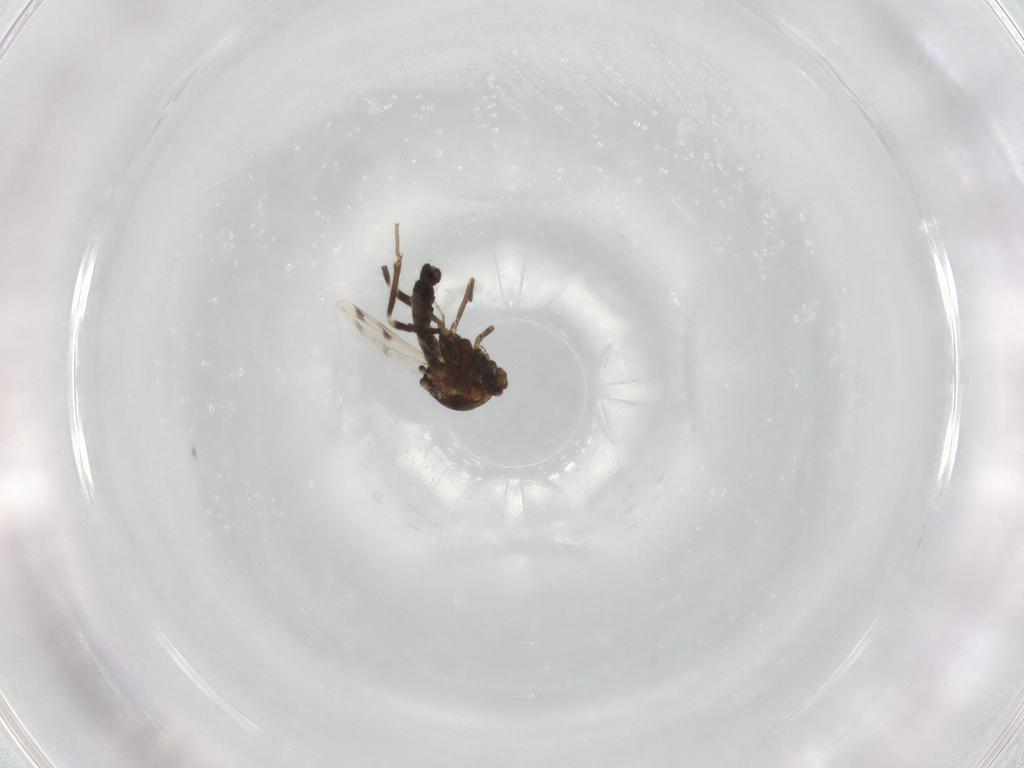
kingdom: Animalia
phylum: Arthropoda
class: Insecta
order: Diptera
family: Ceratopogonidae
